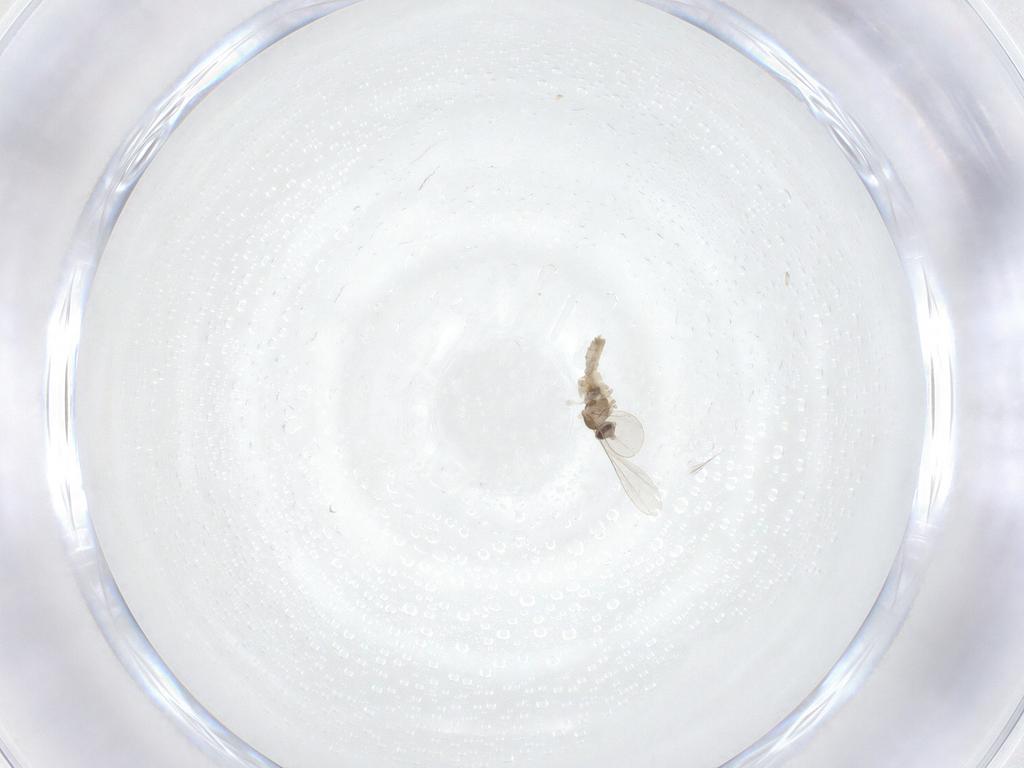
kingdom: Animalia
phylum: Arthropoda
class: Insecta
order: Diptera
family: Cecidomyiidae
